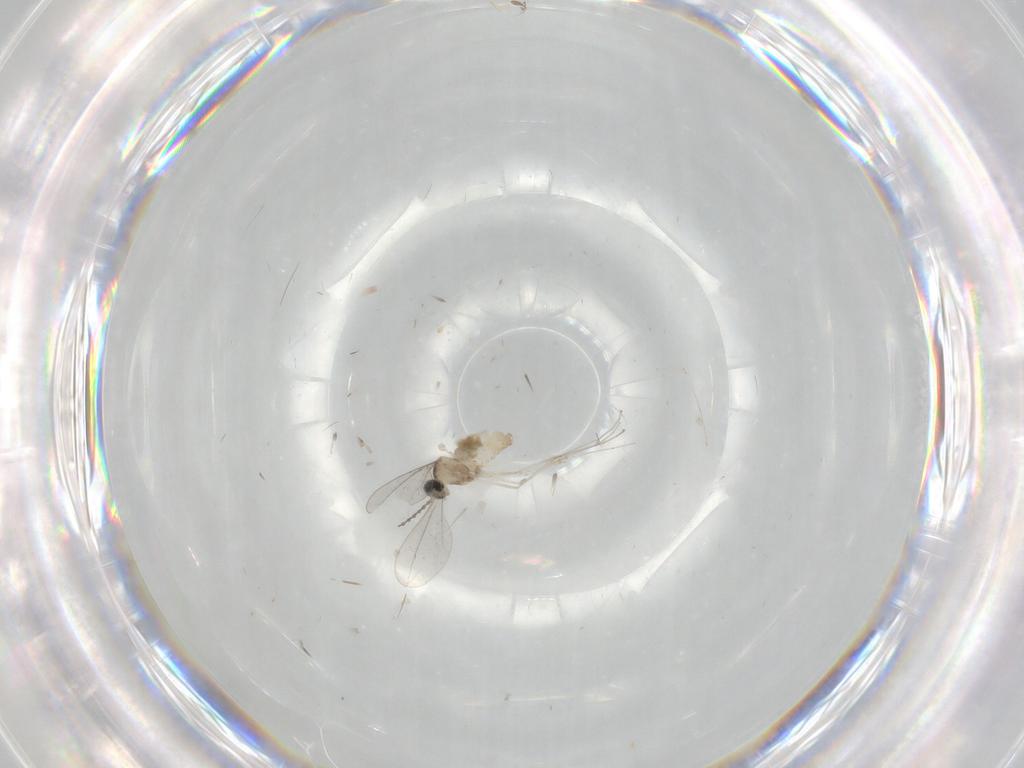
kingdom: Animalia
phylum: Arthropoda
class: Insecta
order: Diptera
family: Cecidomyiidae
